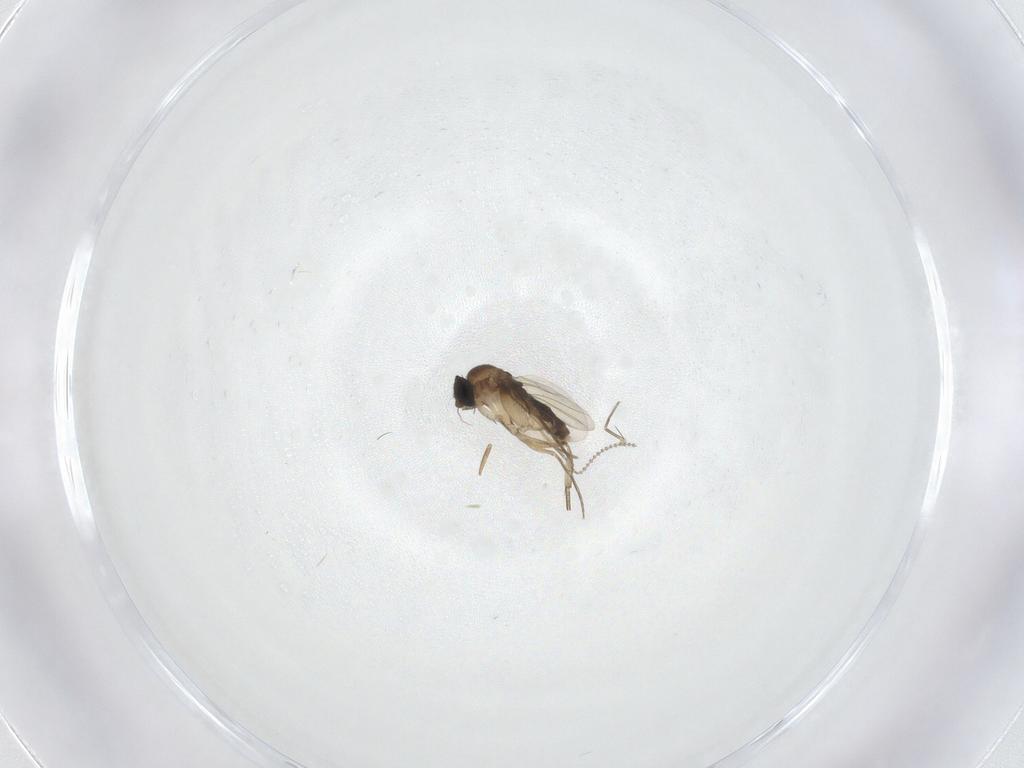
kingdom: Animalia
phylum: Arthropoda
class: Insecta
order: Diptera
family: Phoridae
